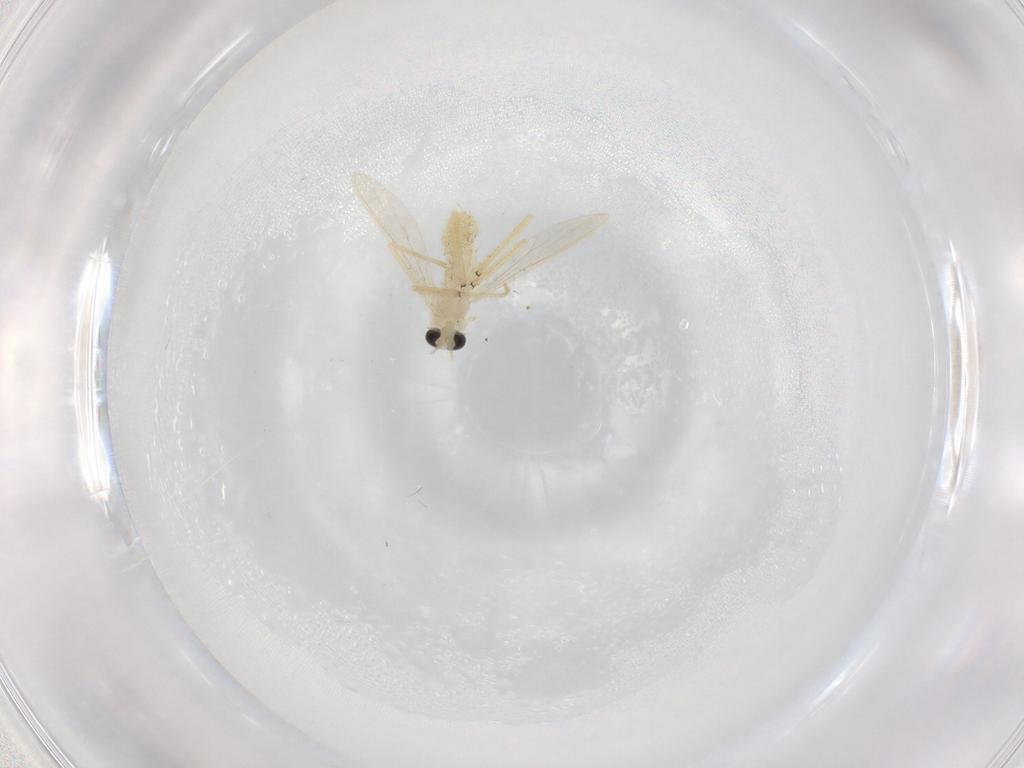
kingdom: Animalia
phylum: Arthropoda
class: Insecta
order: Diptera
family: Chironomidae
